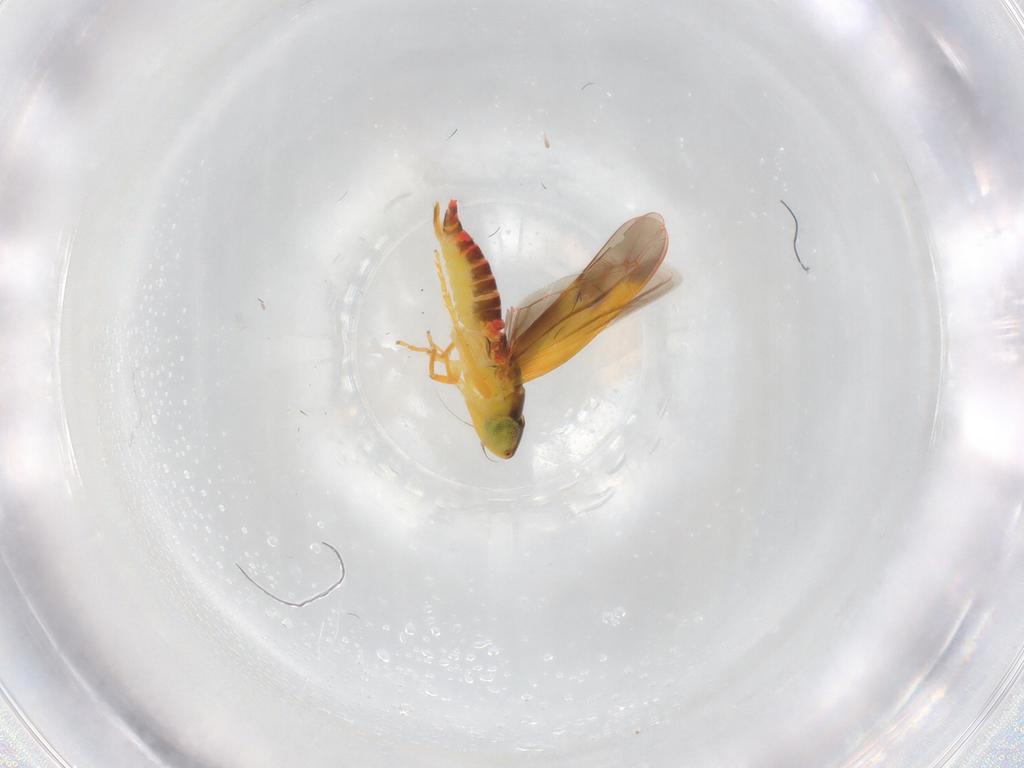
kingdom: Animalia
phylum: Arthropoda
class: Insecta
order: Hemiptera
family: Cicadellidae
